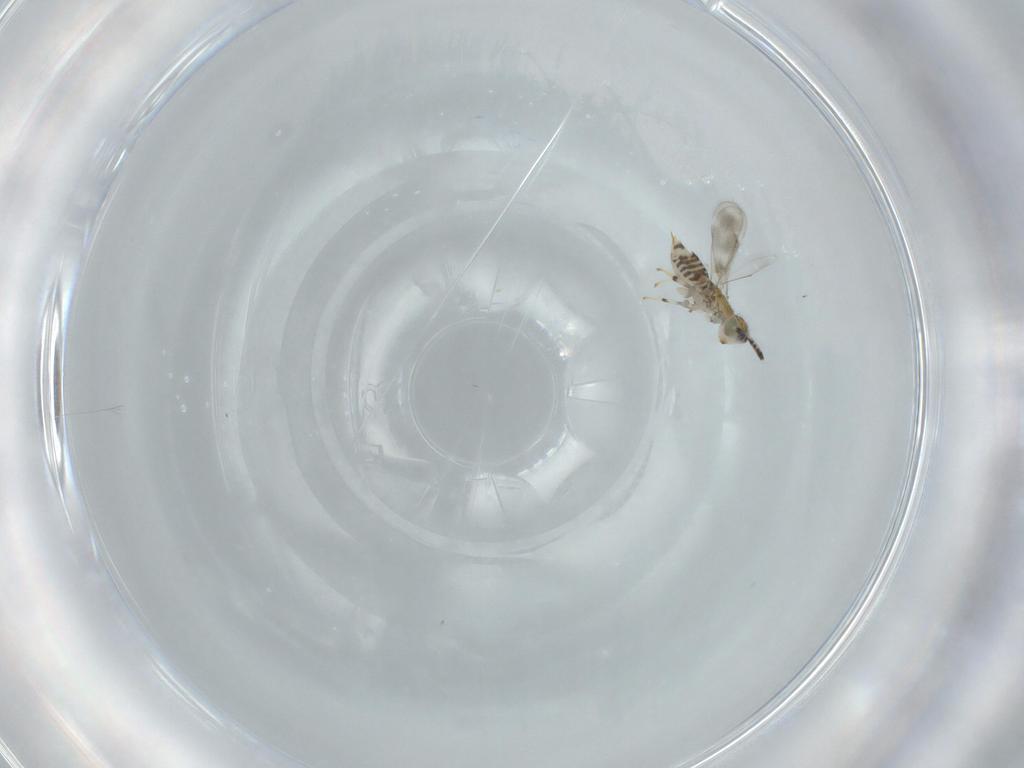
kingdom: Animalia
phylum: Arthropoda
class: Insecta
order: Hymenoptera
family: Aphelinidae
